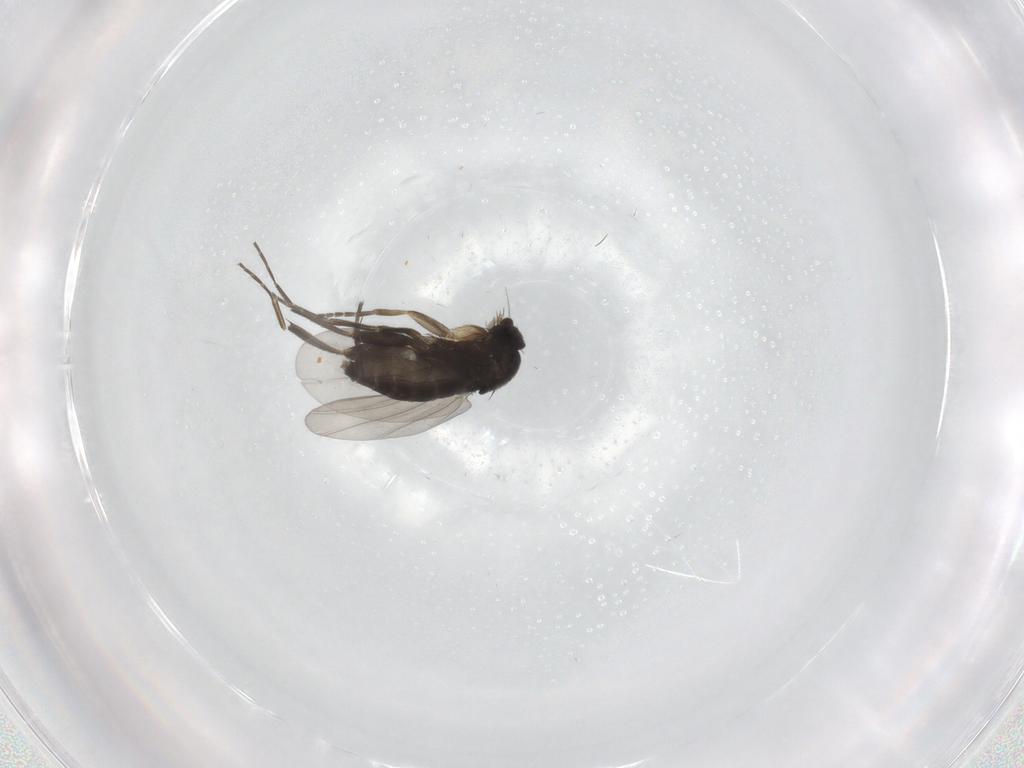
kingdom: Animalia
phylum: Arthropoda
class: Insecta
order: Diptera
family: Phoridae
